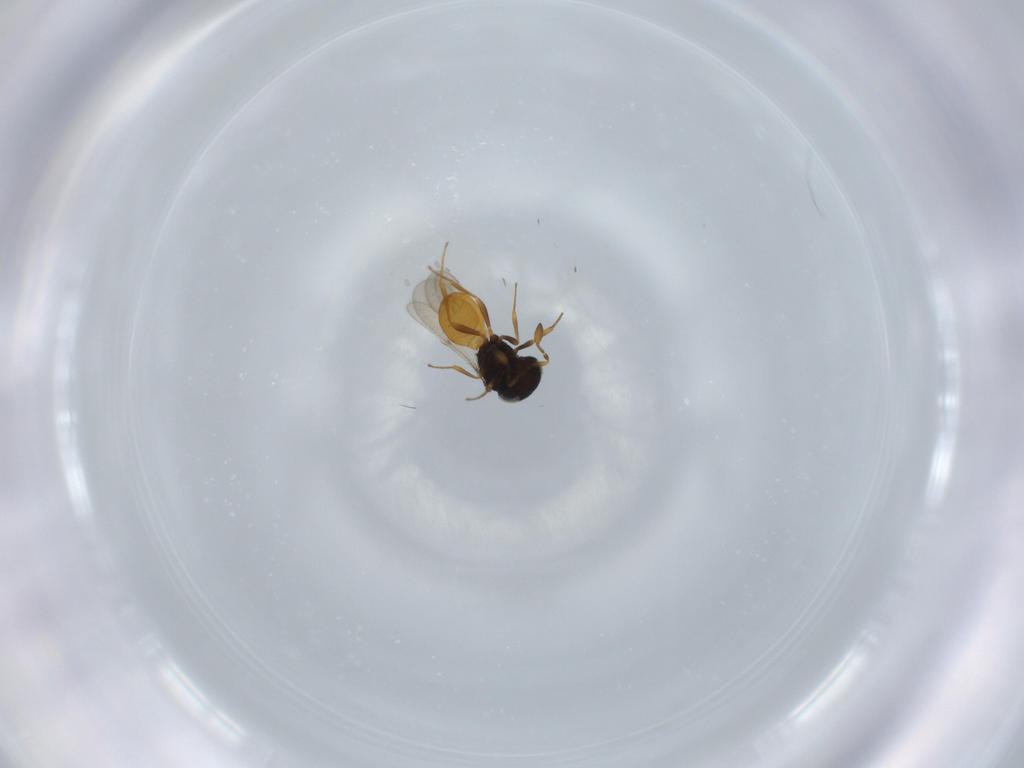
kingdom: Animalia
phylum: Arthropoda
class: Insecta
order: Hymenoptera
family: Scelionidae
